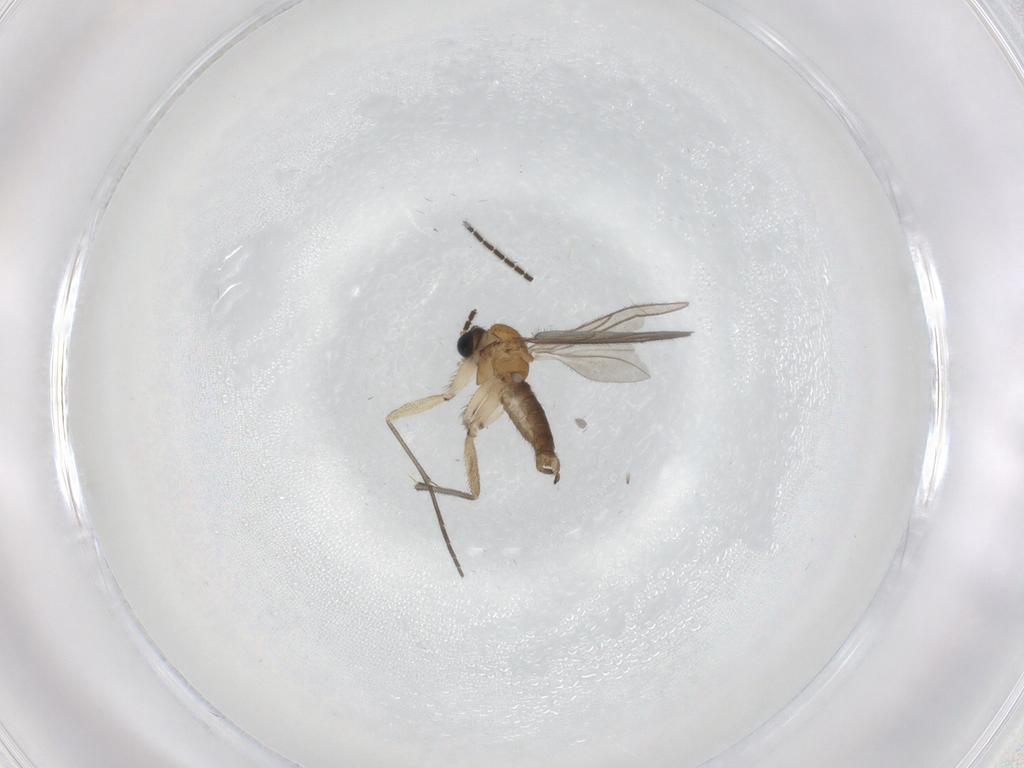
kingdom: Animalia
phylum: Arthropoda
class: Insecta
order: Diptera
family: Sciaridae
